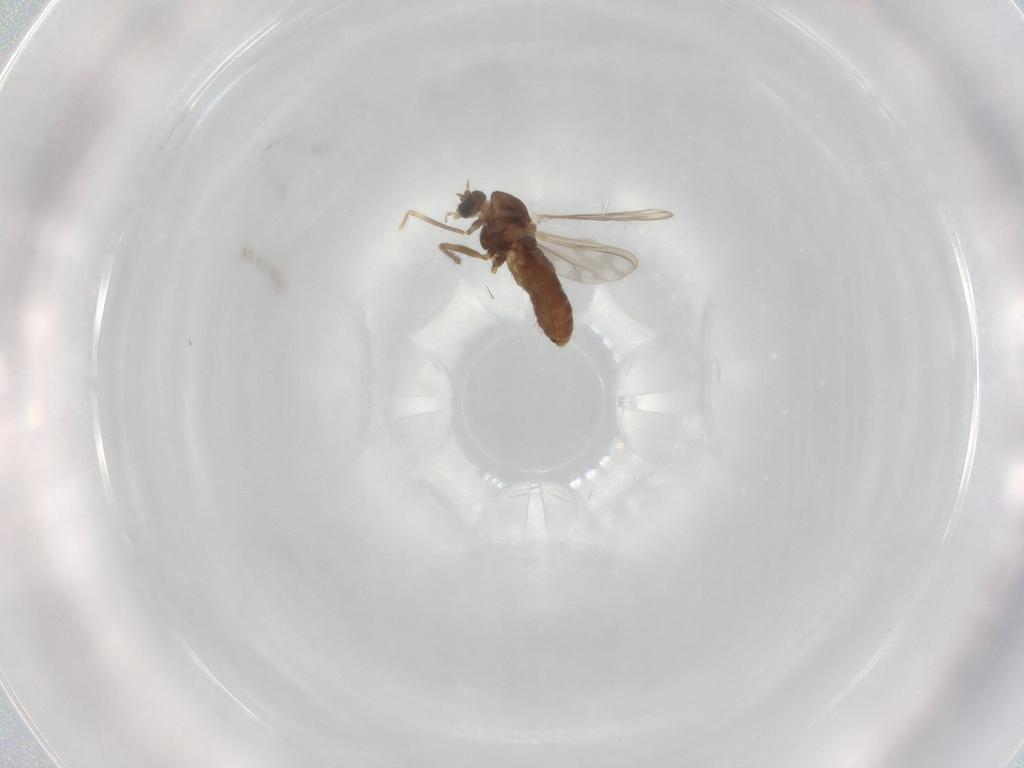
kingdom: Animalia
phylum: Arthropoda
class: Insecta
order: Diptera
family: Chironomidae
